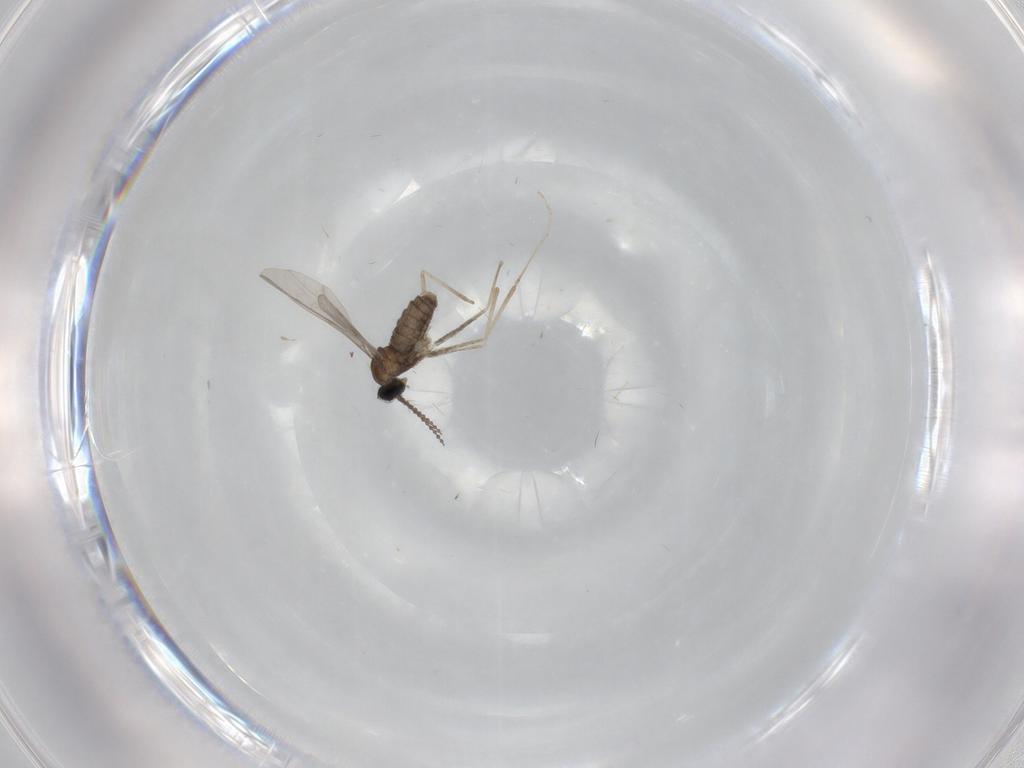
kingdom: Animalia
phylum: Arthropoda
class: Insecta
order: Diptera
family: Cecidomyiidae
